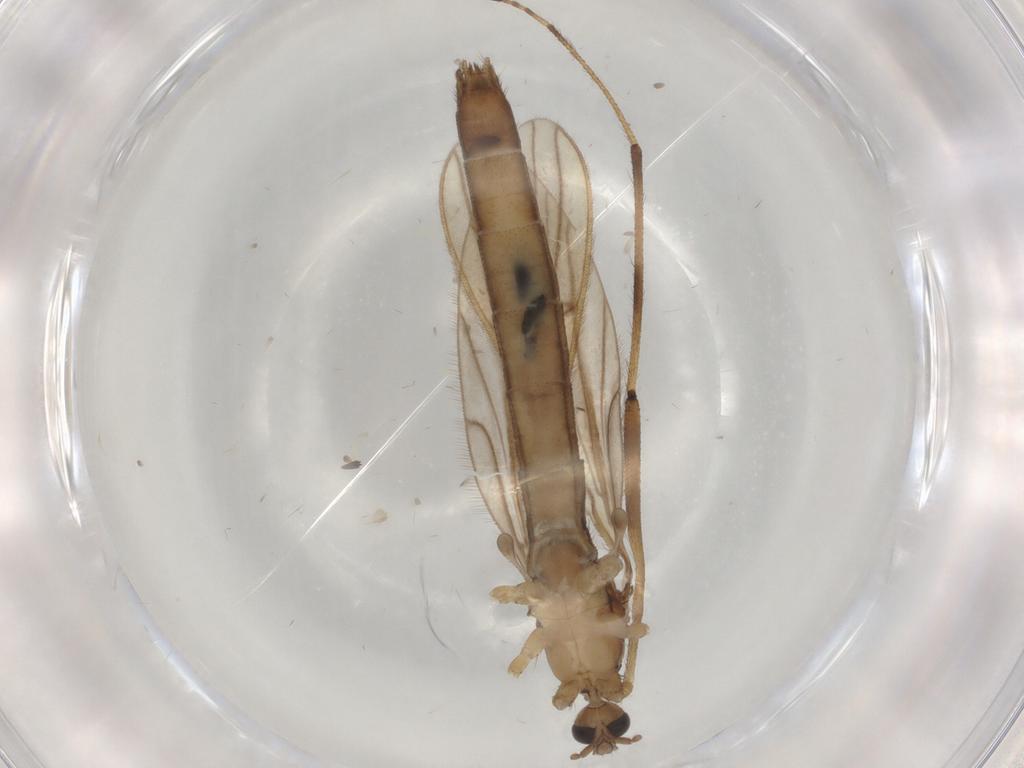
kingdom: Animalia
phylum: Arthropoda
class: Insecta
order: Diptera
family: Limoniidae
